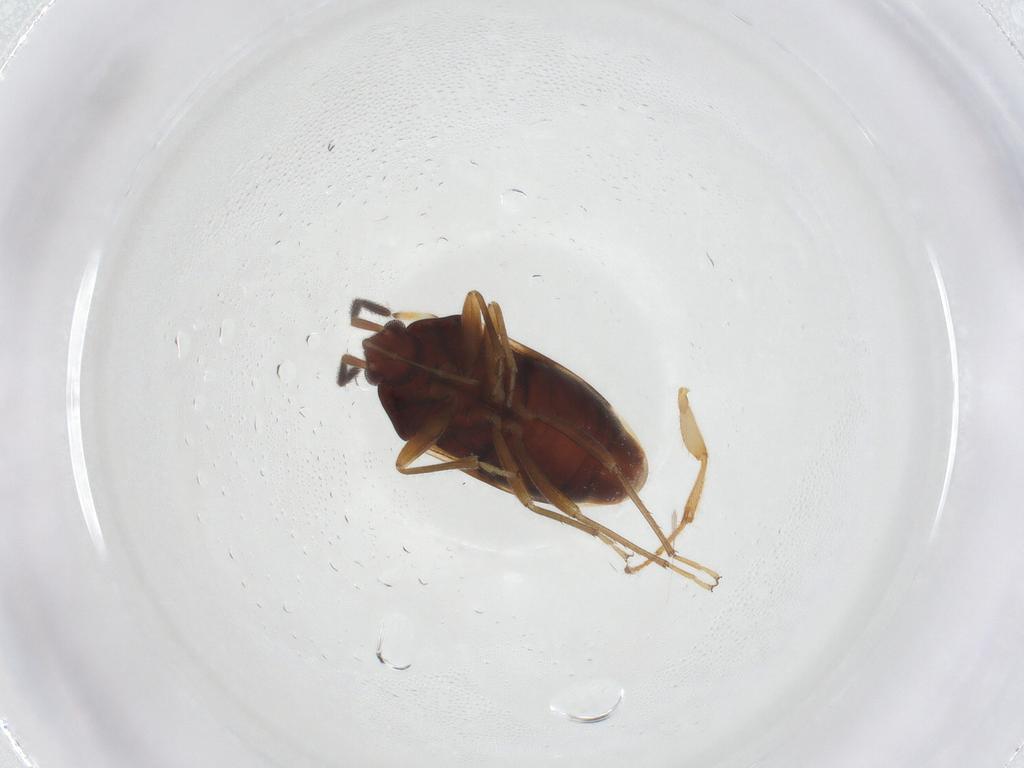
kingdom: Animalia
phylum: Arthropoda
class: Insecta
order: Hemiptera
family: Rhyparochromidae
